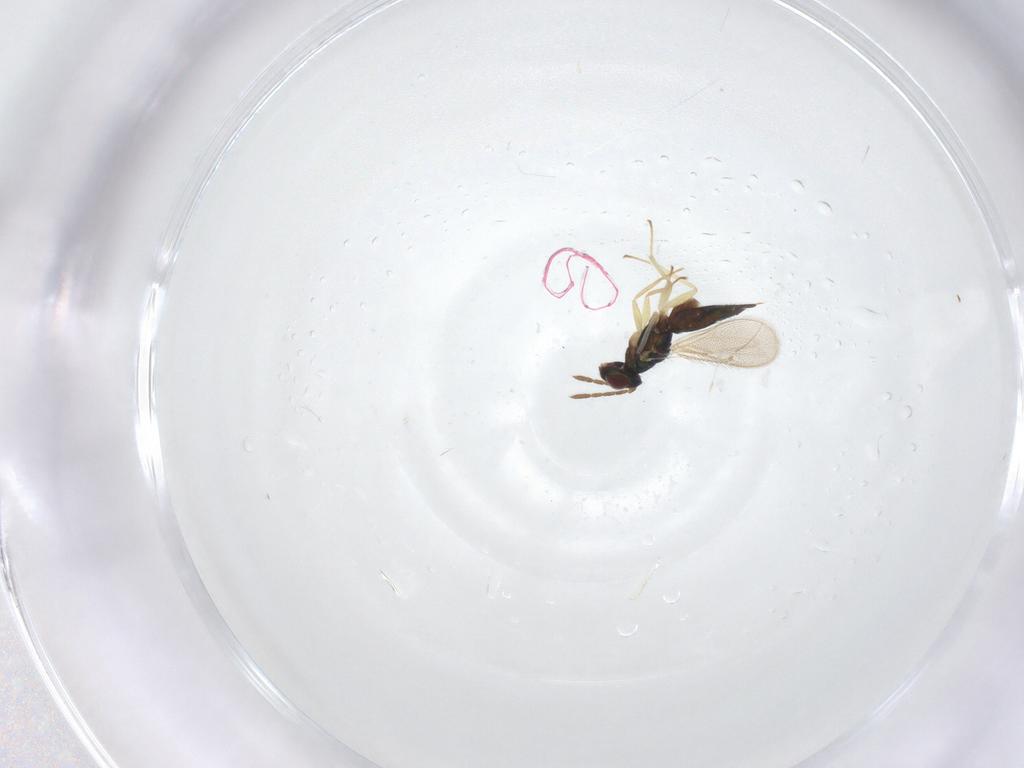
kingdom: Animalia
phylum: Arthropoda
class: Insecta
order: Hymenoptera
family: Eulophidae
